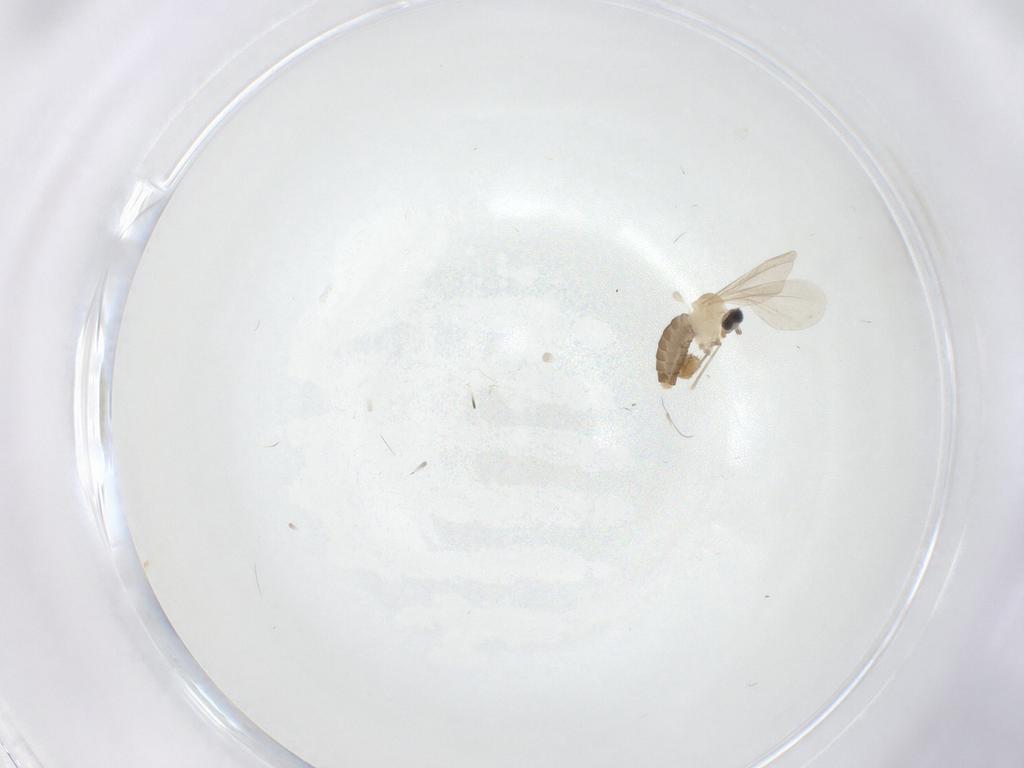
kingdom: Animalia
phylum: Arthropoda
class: Insecta
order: Diptera
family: Cecidomyiidae
